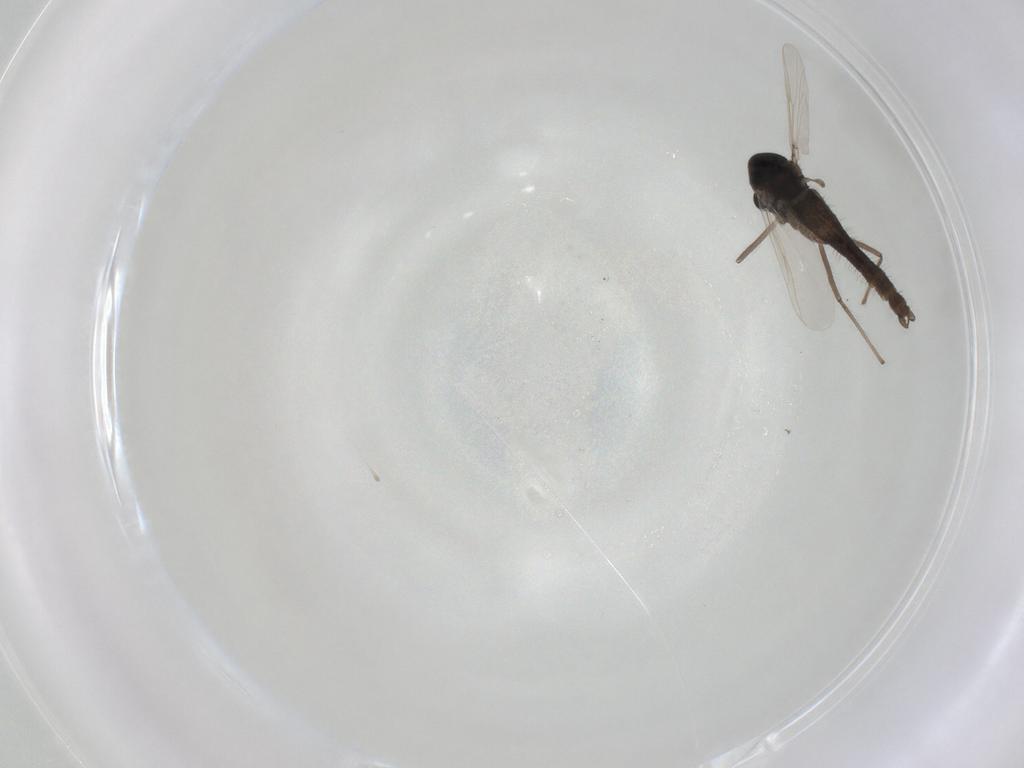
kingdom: Animalia
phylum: Arthropoda
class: Insecta
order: Diptera
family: Chironomidae
